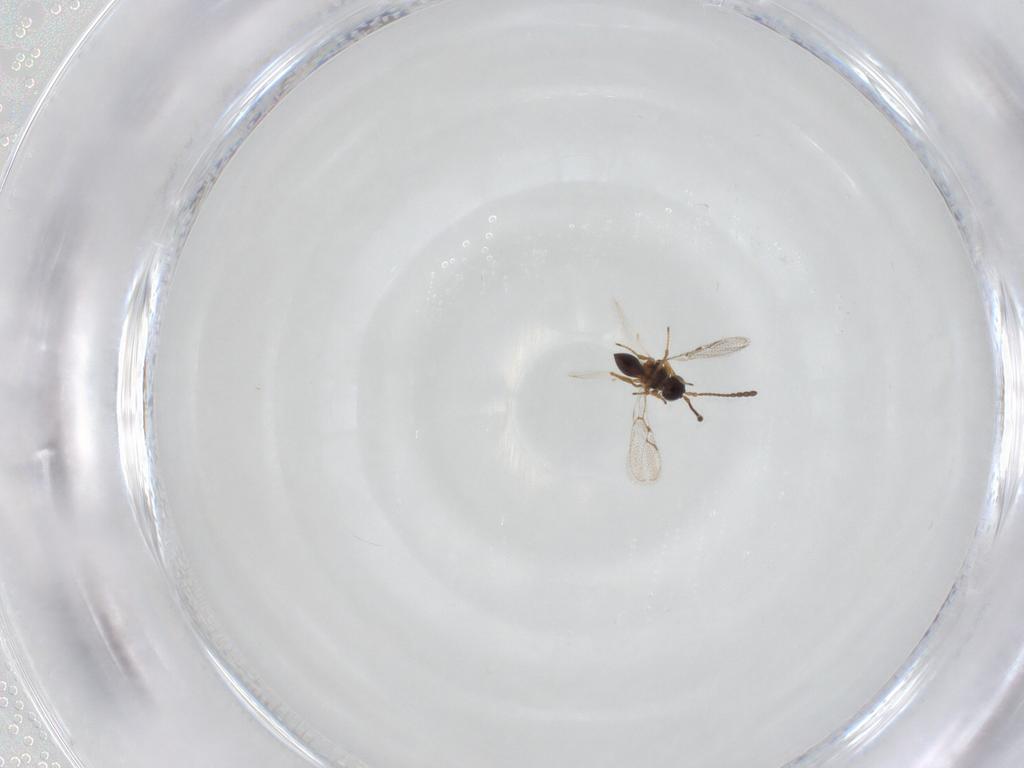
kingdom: Animalia
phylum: Arthropoda
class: Insecta
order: Hymenoptera
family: Figitidae
